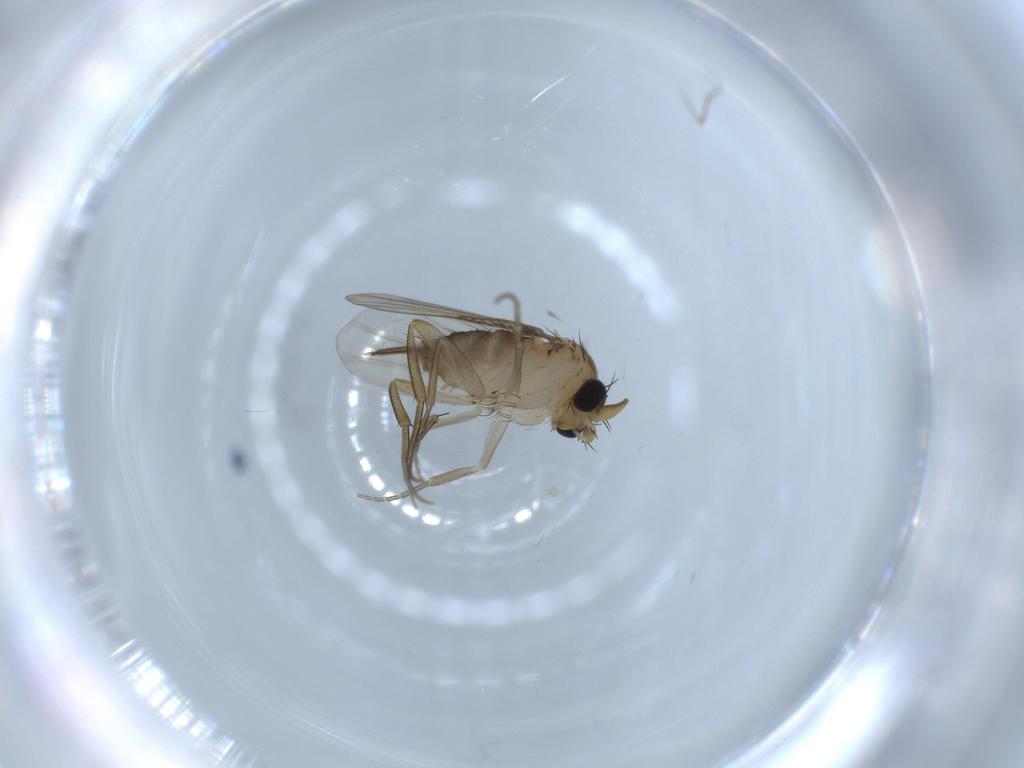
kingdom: Animalia
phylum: Arthropoda
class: Insecta
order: Diptera
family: Phoridae
